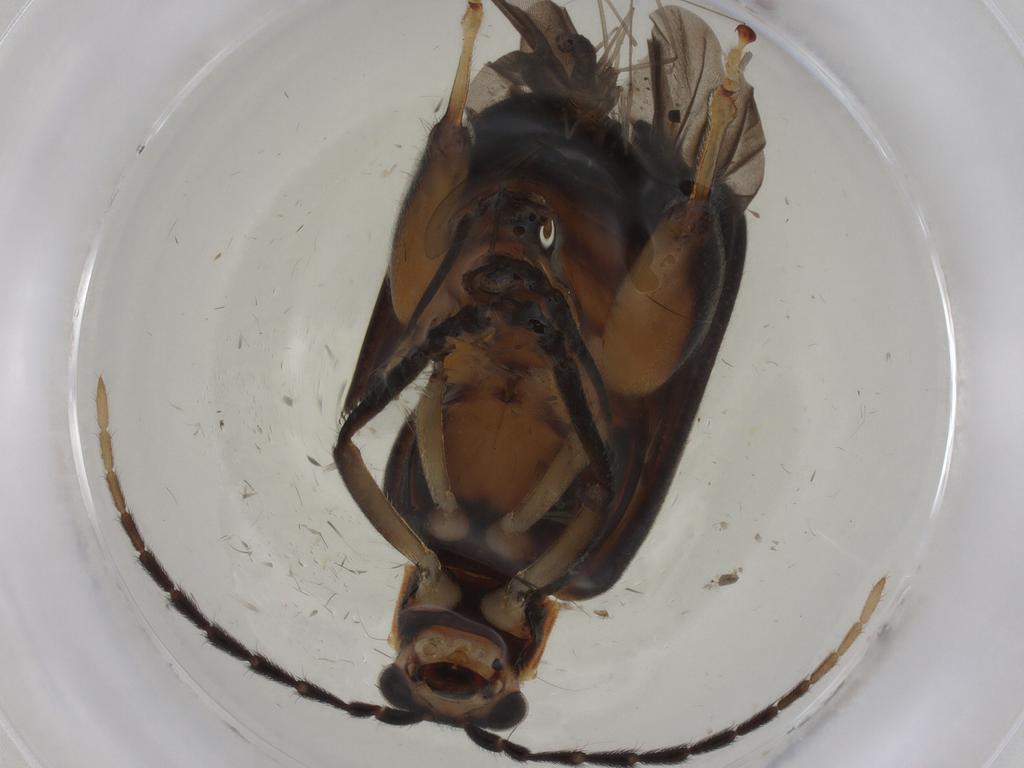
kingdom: Animalia
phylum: Arthropoda
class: Insecta
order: Coleoptera
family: Chrysomelidae
